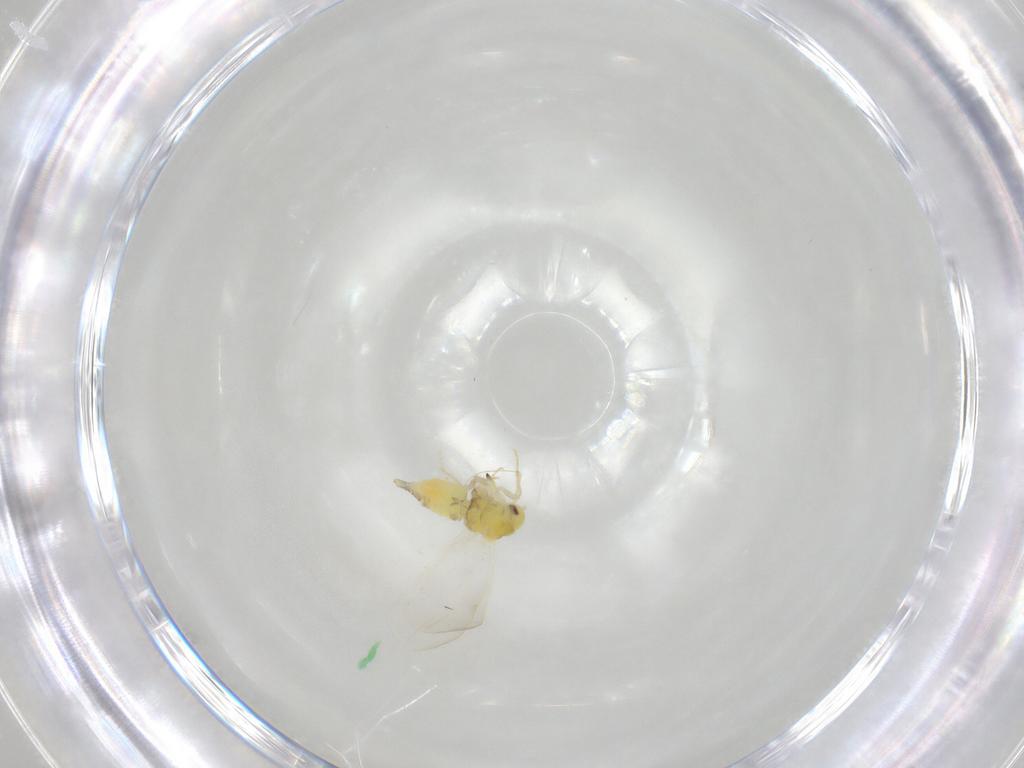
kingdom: Animalia
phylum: Arthropoda
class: Insecta
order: Hemiptera
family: Aleyrodidae
